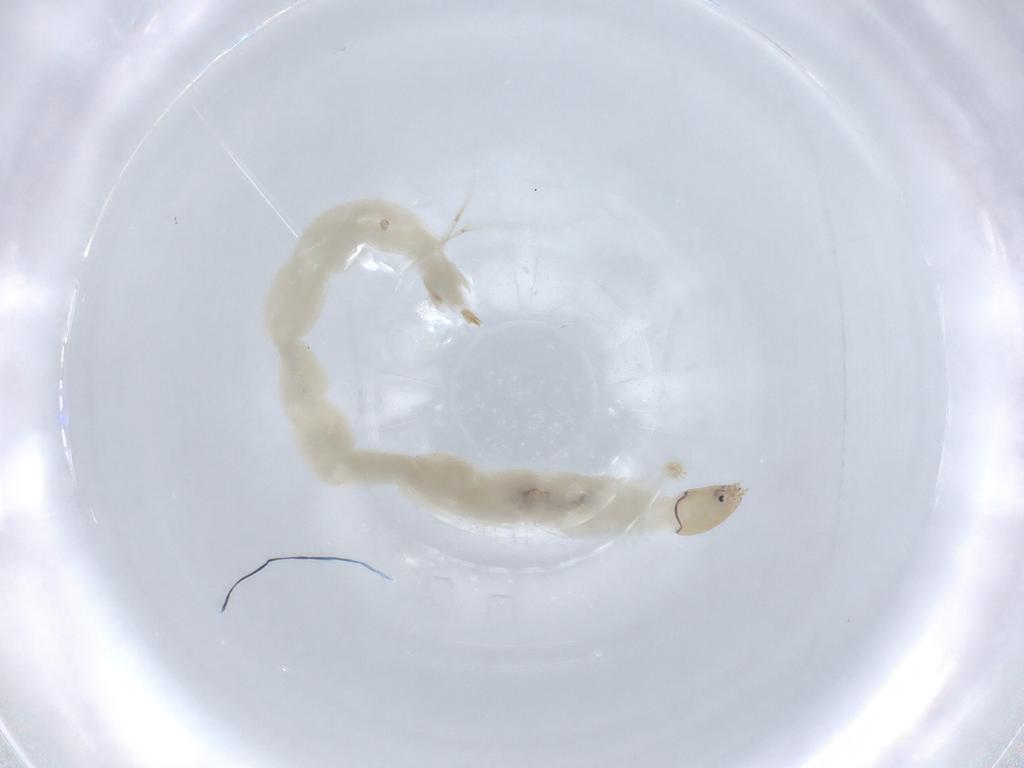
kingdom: Animalia
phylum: Arthropoda
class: Insecta
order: Diptera
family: Chironomidae
